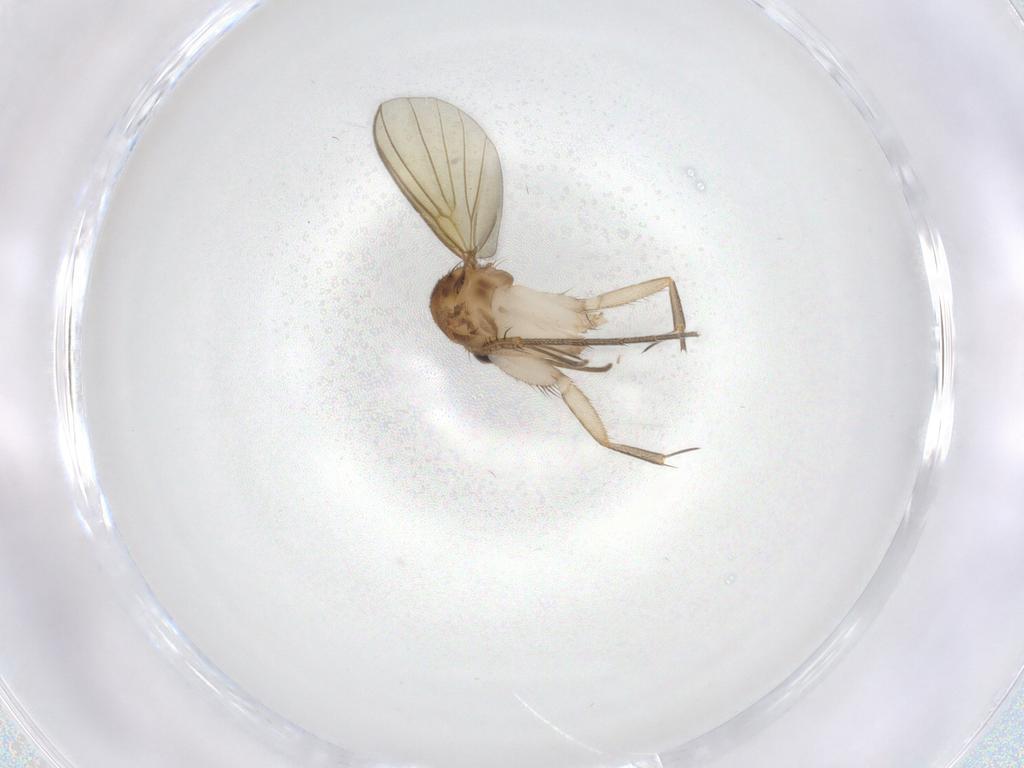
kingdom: Animalia
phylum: Arthropoda
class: Insecta
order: Diptera
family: Mycetophilidae
